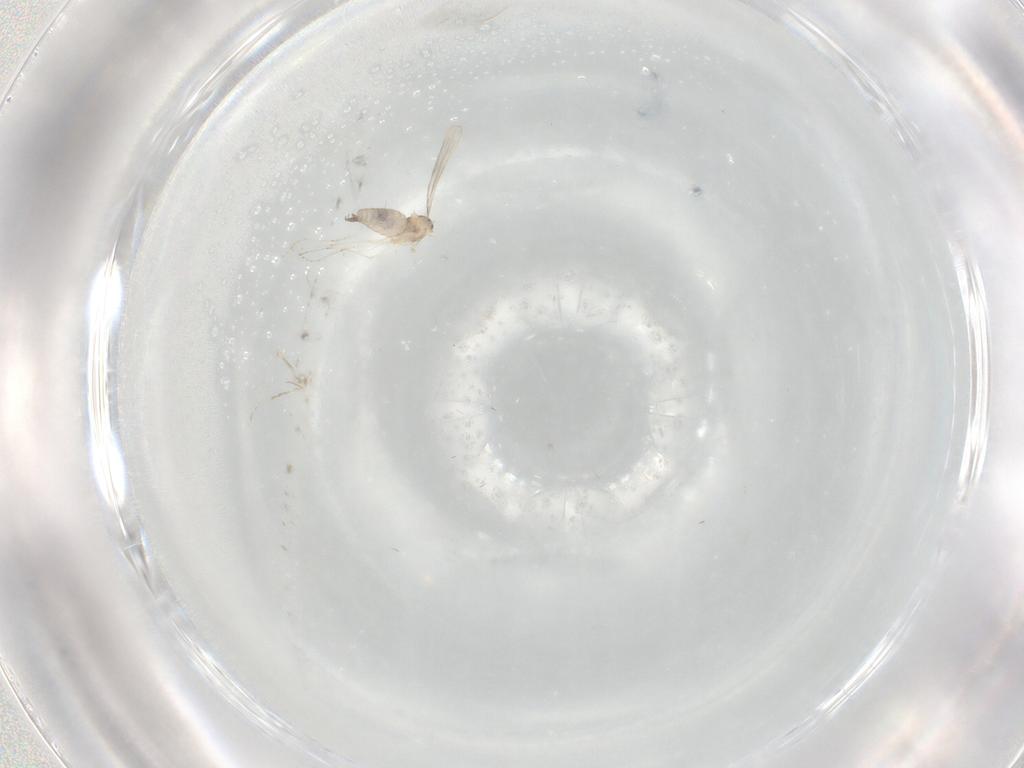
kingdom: Animalia
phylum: Arthropoda
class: Insecta
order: Diptera
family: Cecidomyiidae
